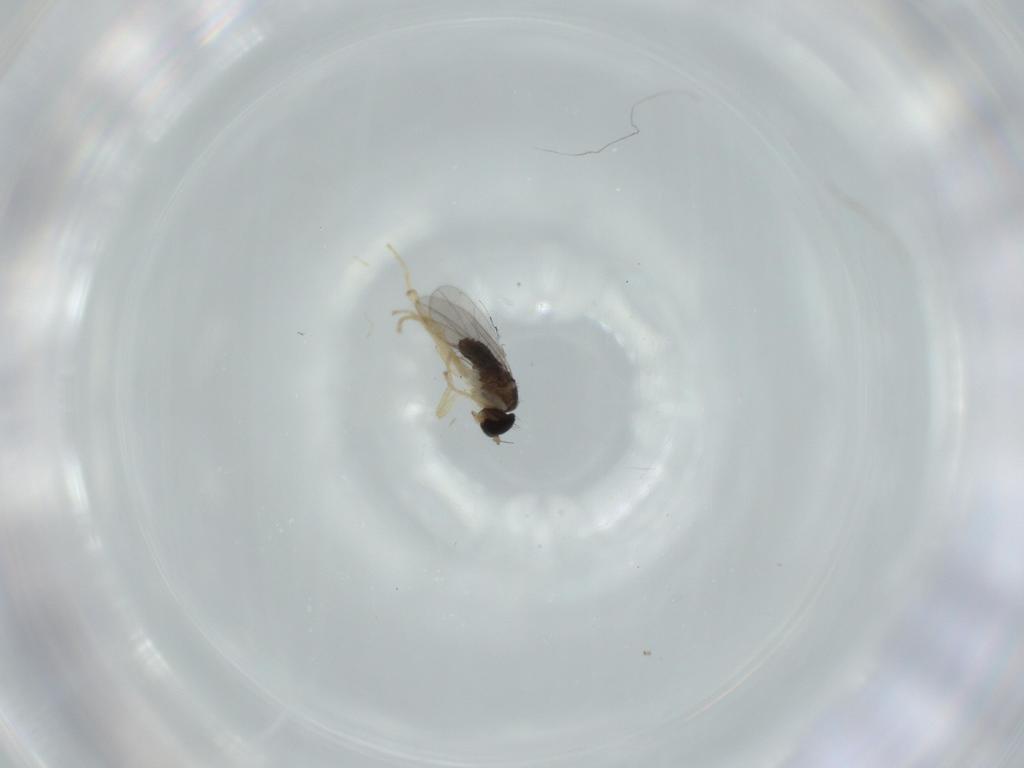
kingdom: Animalia
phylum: Arthropoda
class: Insecta
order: Diptera
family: Hybotidae
